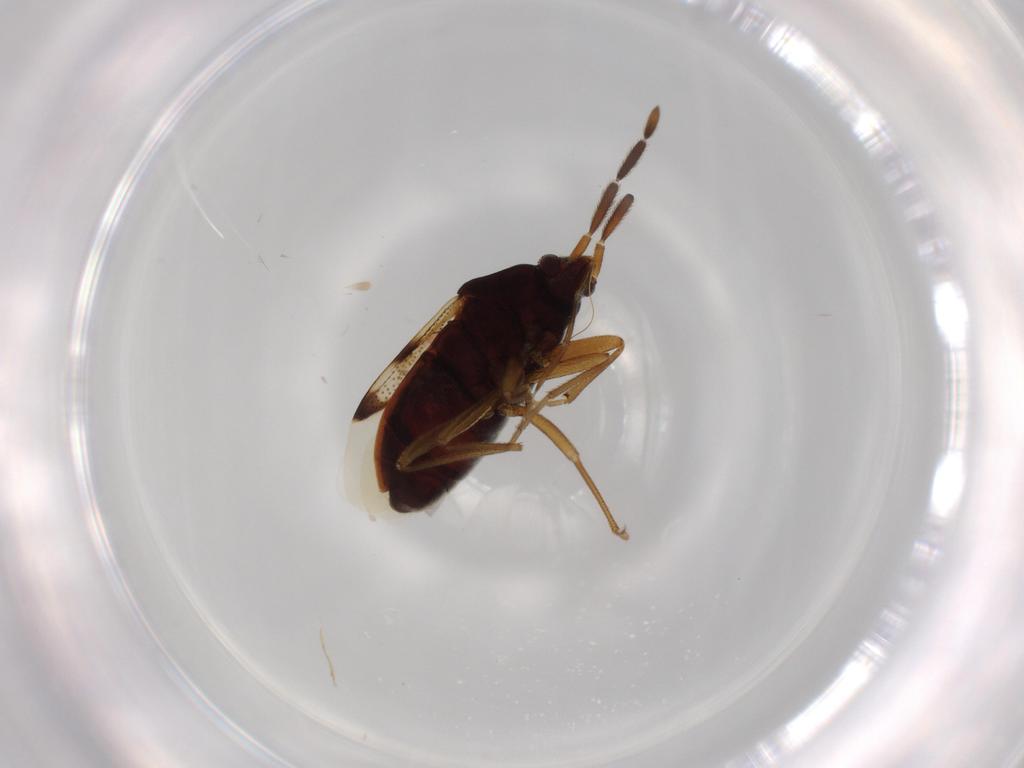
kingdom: Animalia
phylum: Arthropoda
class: Insecta
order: Hemiptera
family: Rhyparochromidae
